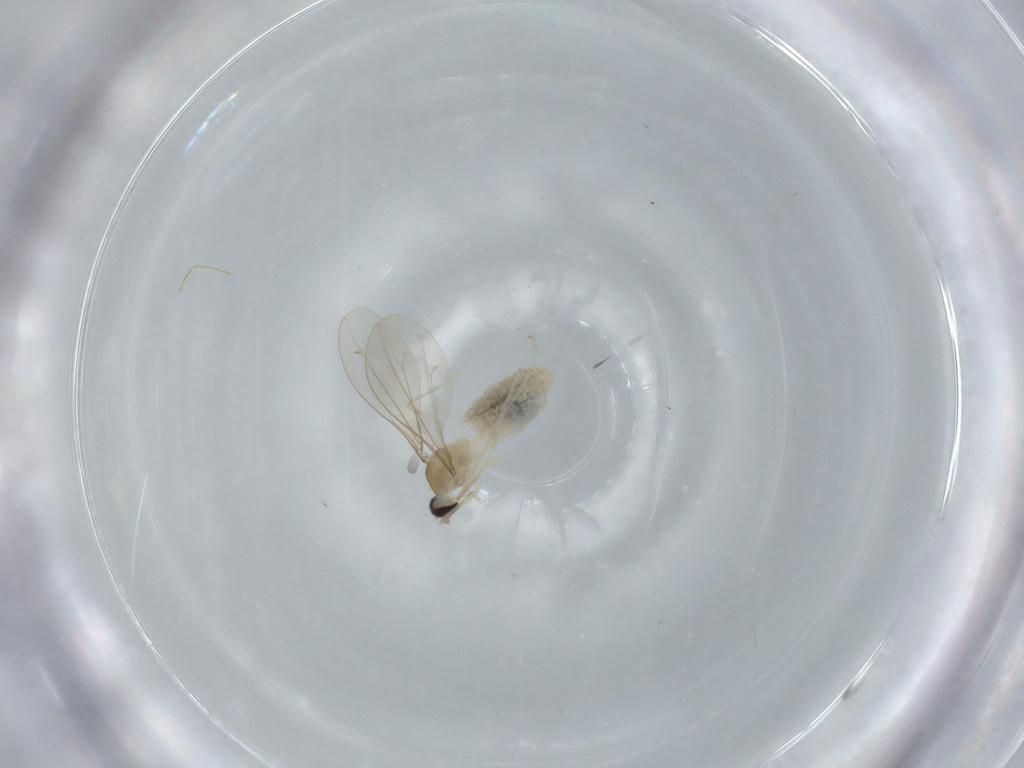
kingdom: Animalia
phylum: Arthropoda
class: Insecta
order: Diptera
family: Cecidomyiidae
